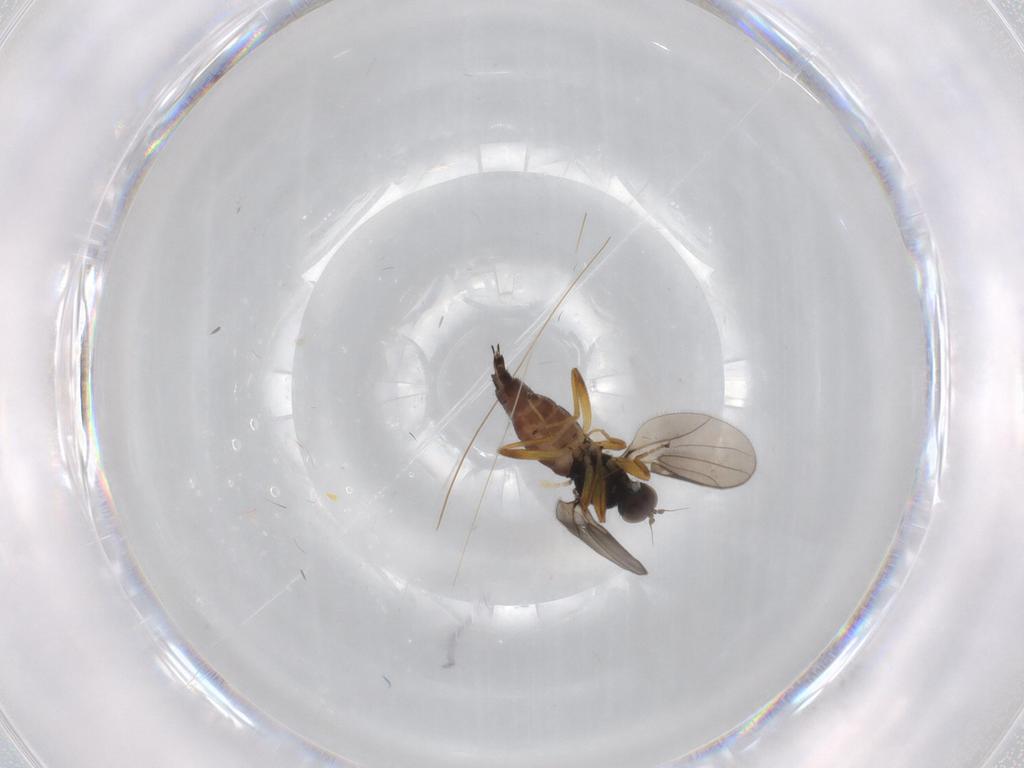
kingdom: Animalia
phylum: Arthropoda
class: Insecta
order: Diptera
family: Hybotidae
